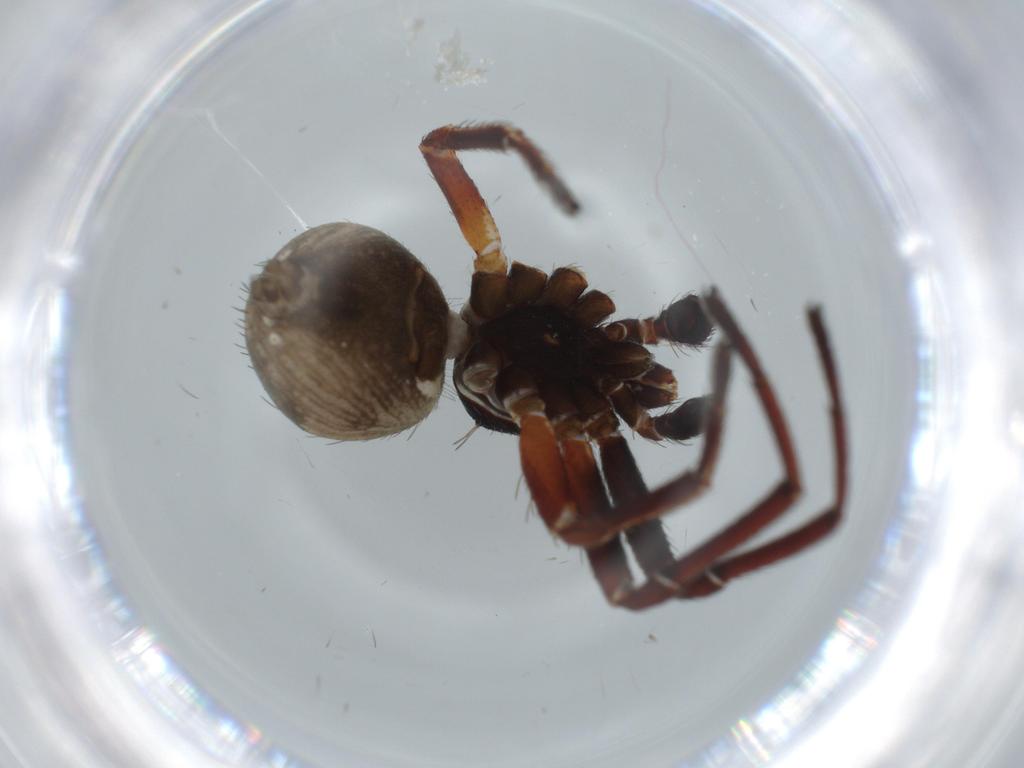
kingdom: Animalia
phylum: Arthropoda
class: Arachnida
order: Araneae
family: Thomisidae
